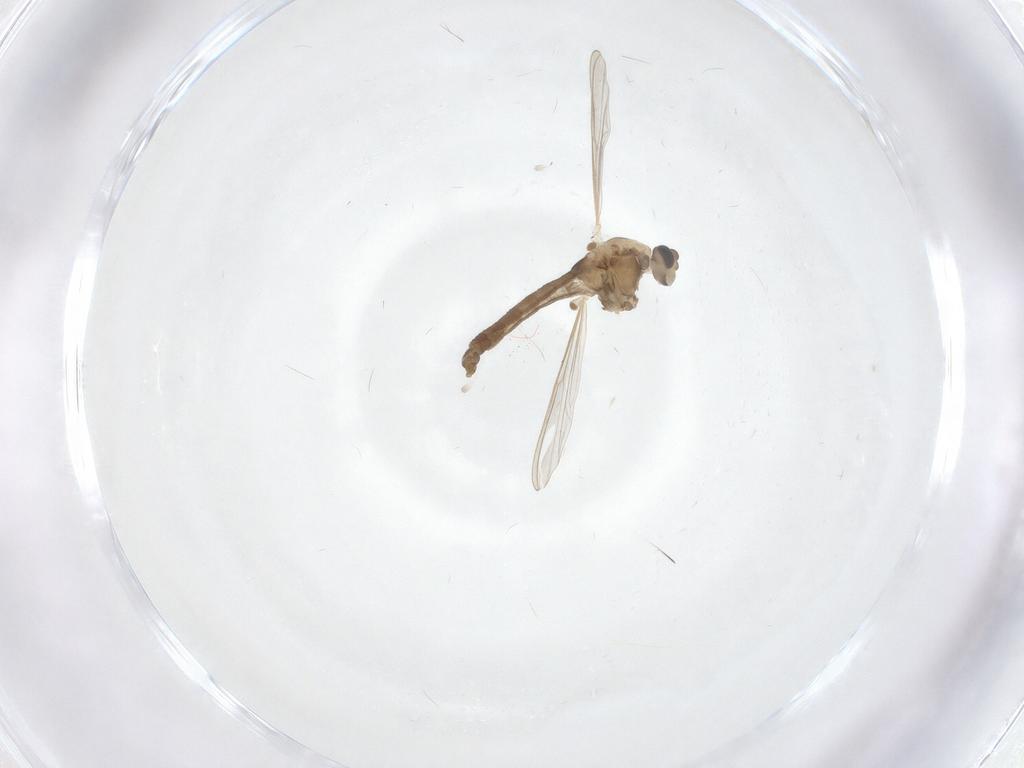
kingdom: Animalia
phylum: Arthropoda
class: Insecta
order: Diptera
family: Chironomidae
